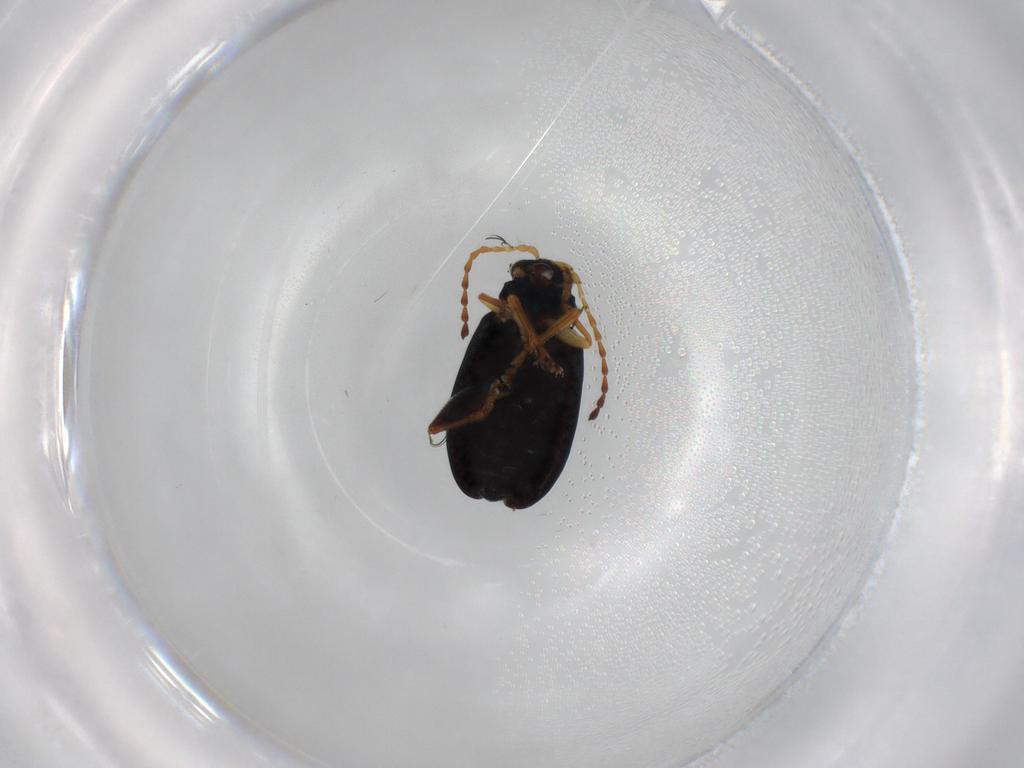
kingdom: Animalia
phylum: Arthropoda
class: Insecta
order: Coleoptera
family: Chrysomelidae
